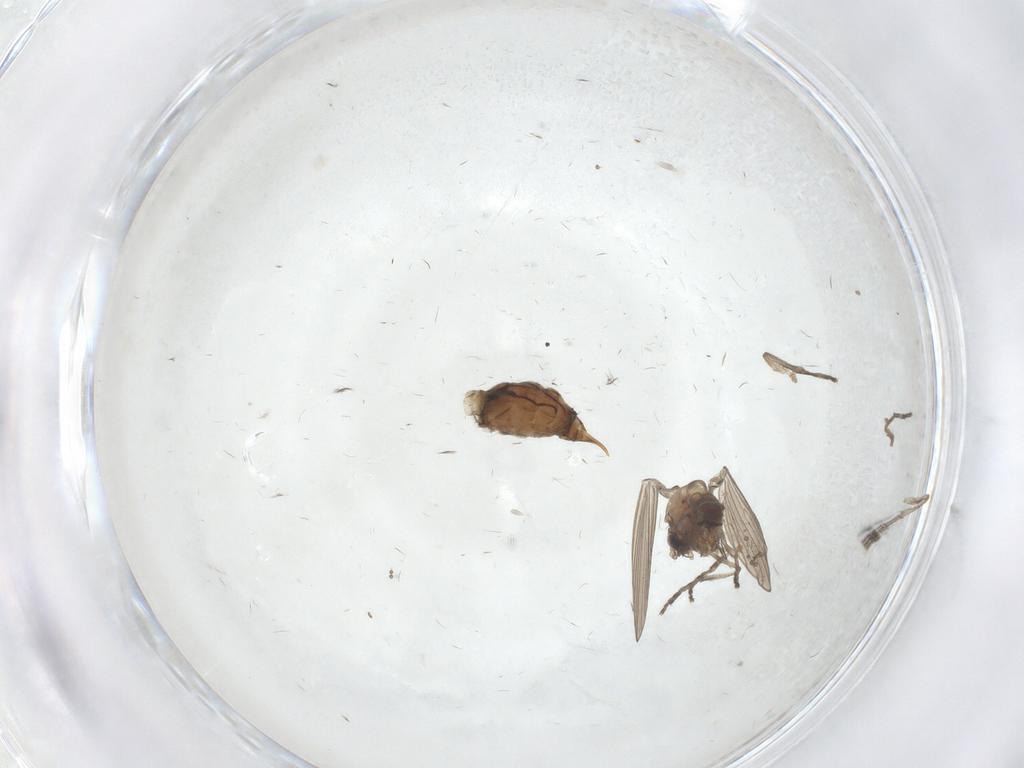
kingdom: Animalia
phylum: Arthropoda
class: Insecta
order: Diptera
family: Psychodidae
